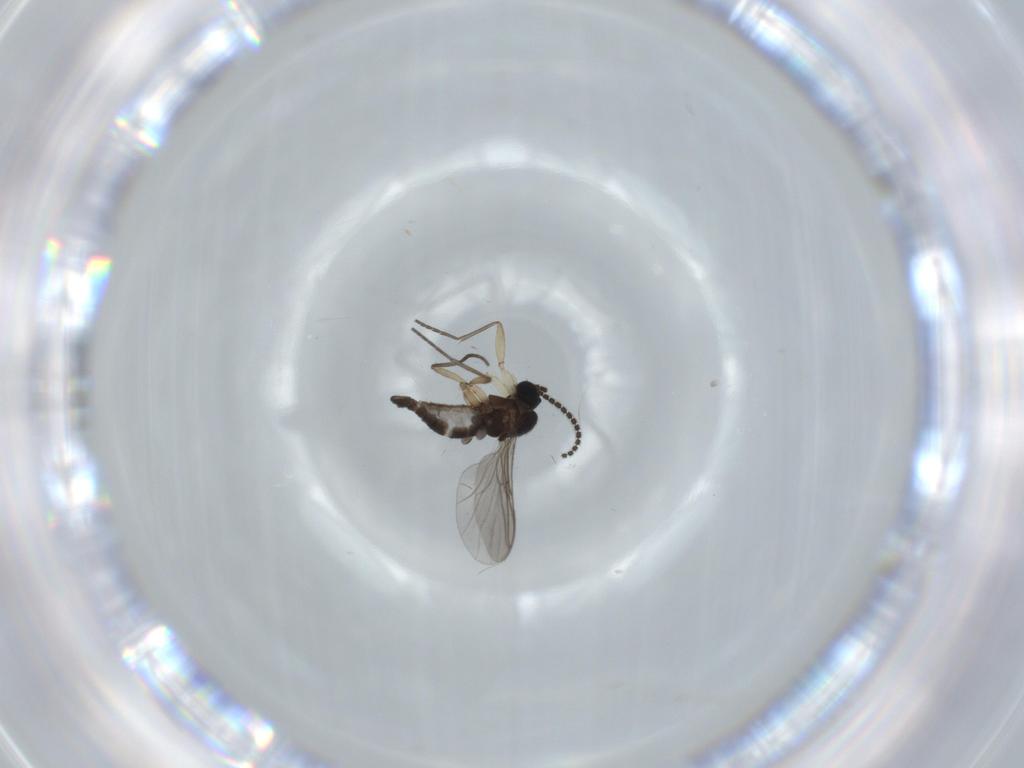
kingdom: Animalia
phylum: Arthropoda
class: Insecta
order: Diptera
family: Sciaridae
